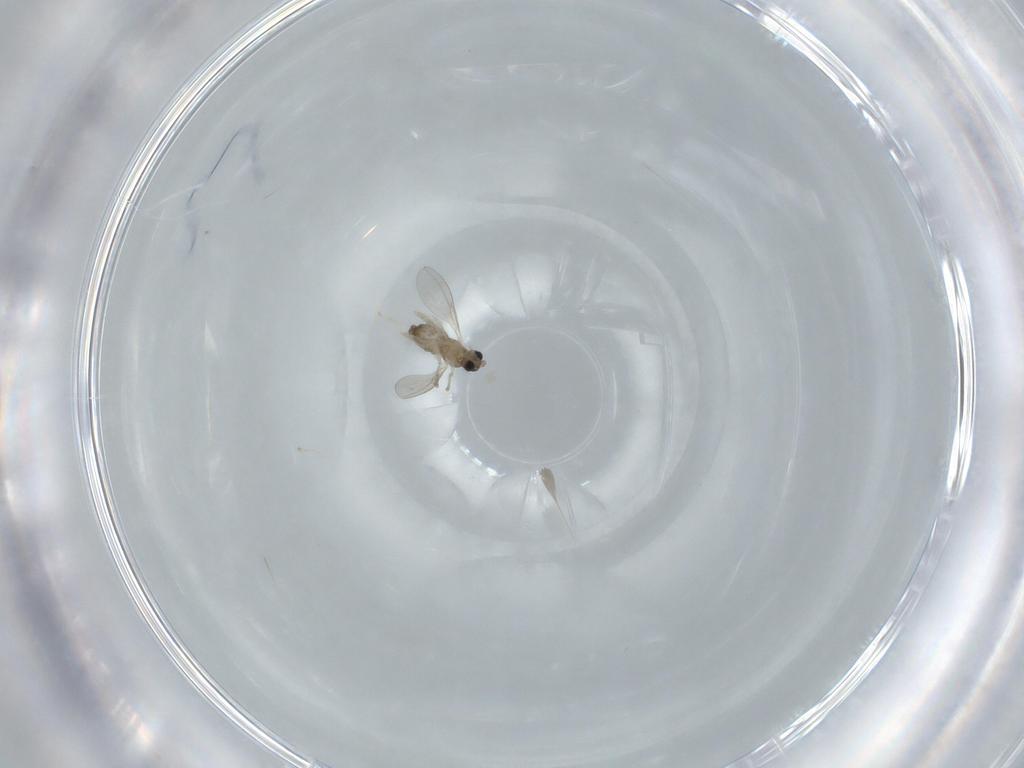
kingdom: Animalia
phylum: Arthropoda
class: Insecta
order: Diptera
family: Cecidomyiidae
